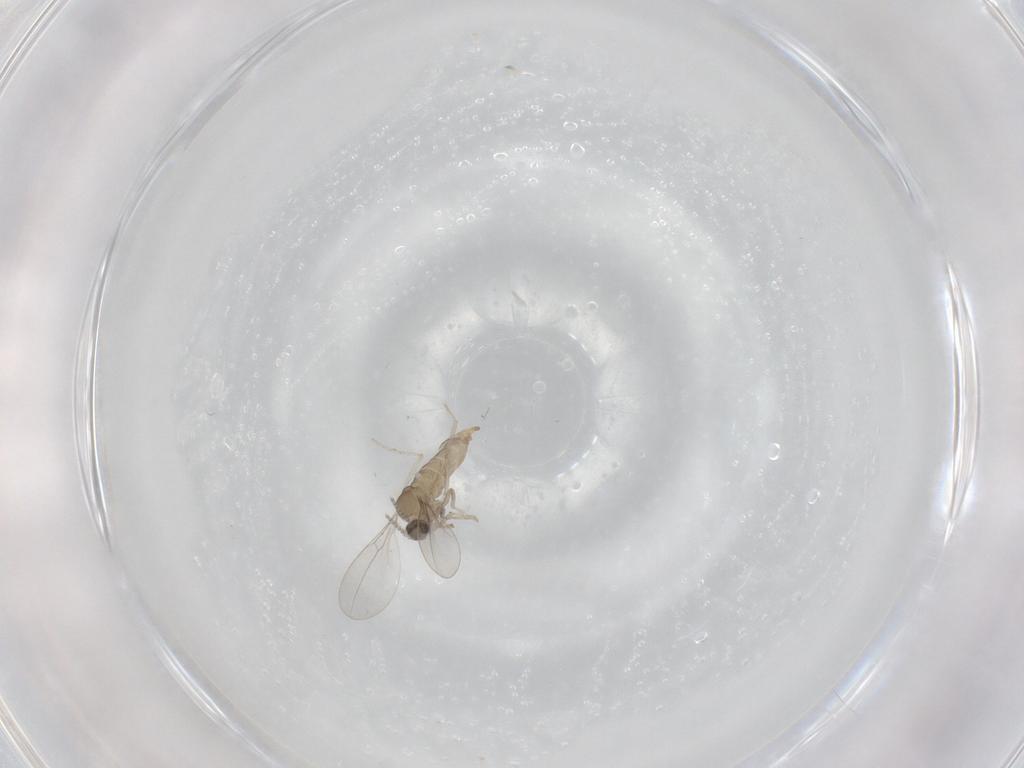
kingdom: Animalia
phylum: Arthropoda
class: Insecta
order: Diptera
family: Cecidomyiidae
